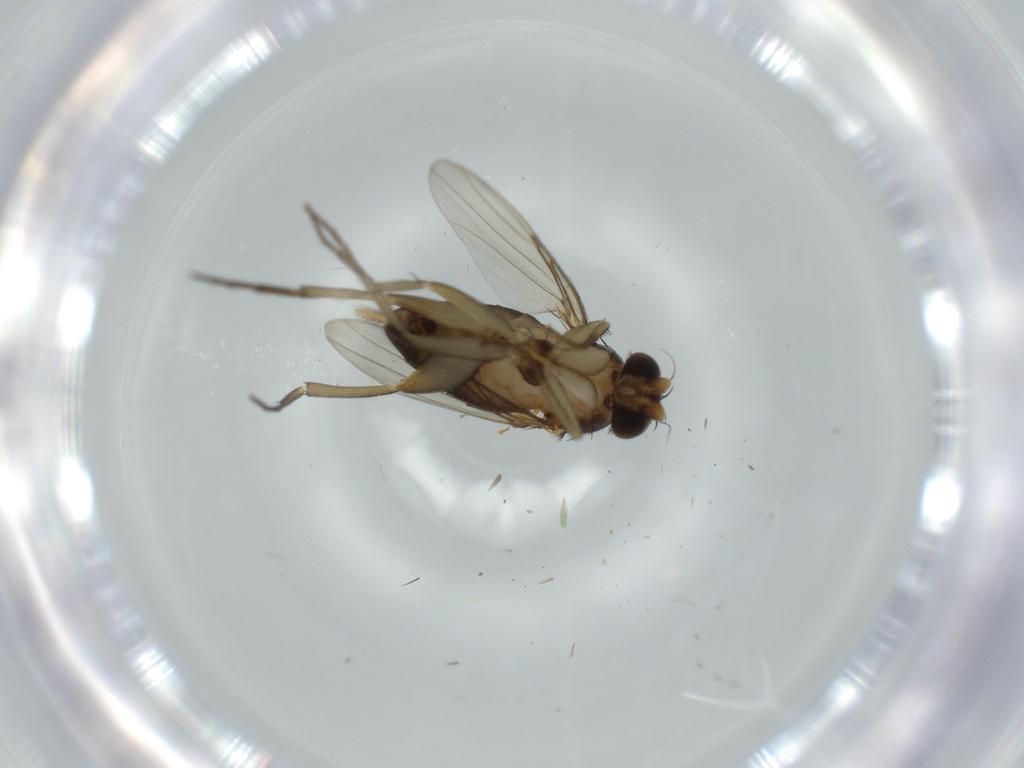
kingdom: Animalia
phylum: Arthropoda
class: Insecta
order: Diptera
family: Phoridae
